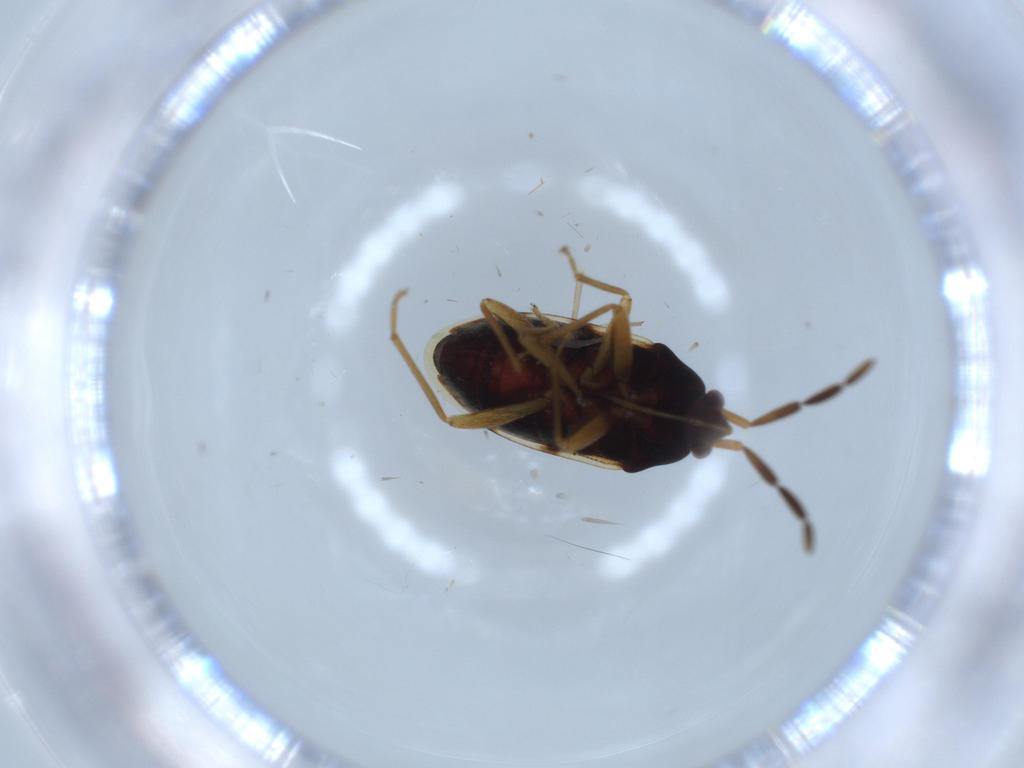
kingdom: Animalia
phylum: Arthropoda
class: Insecta
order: Hemiptera
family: Rhyparochromidae
